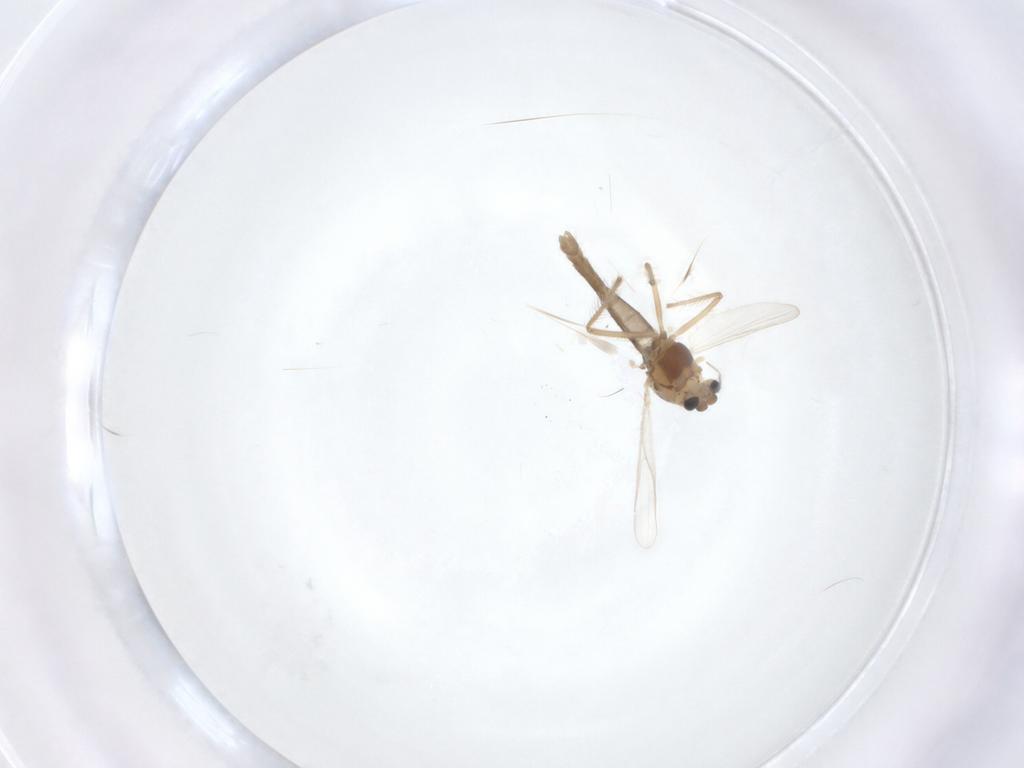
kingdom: Animalia
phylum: Arthropoda
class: Insecta
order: Diptera
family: Chironomidae
